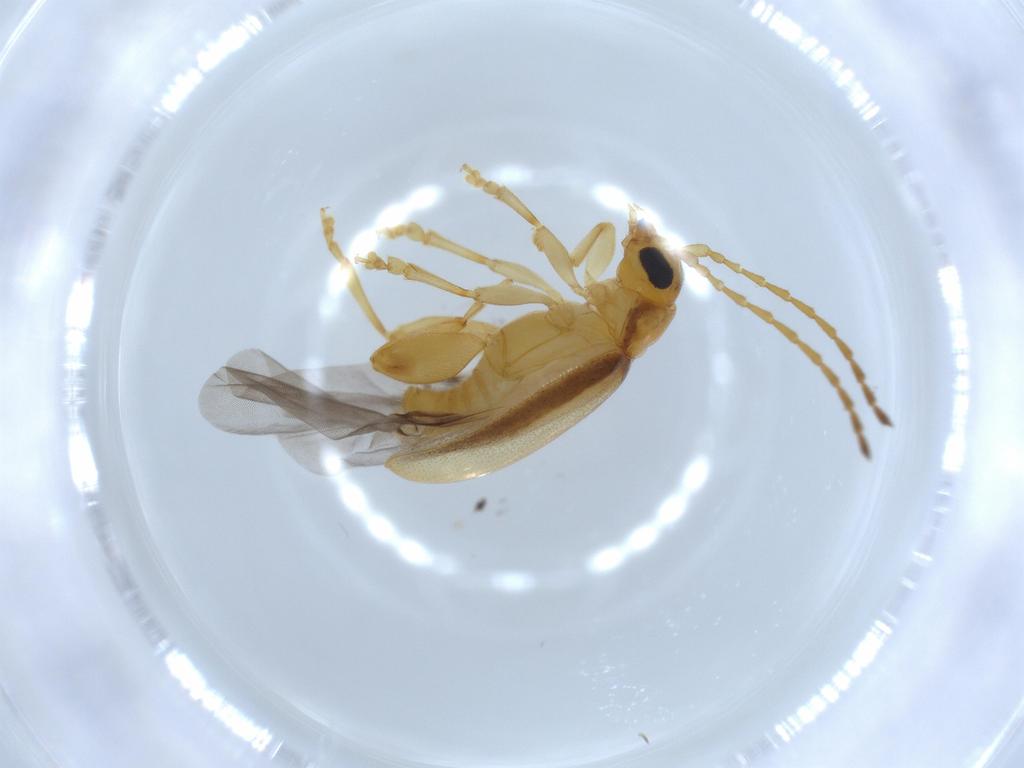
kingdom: Animalia
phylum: Arthropoda
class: Insecta
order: Coleoptera
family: Chrysomelidae
